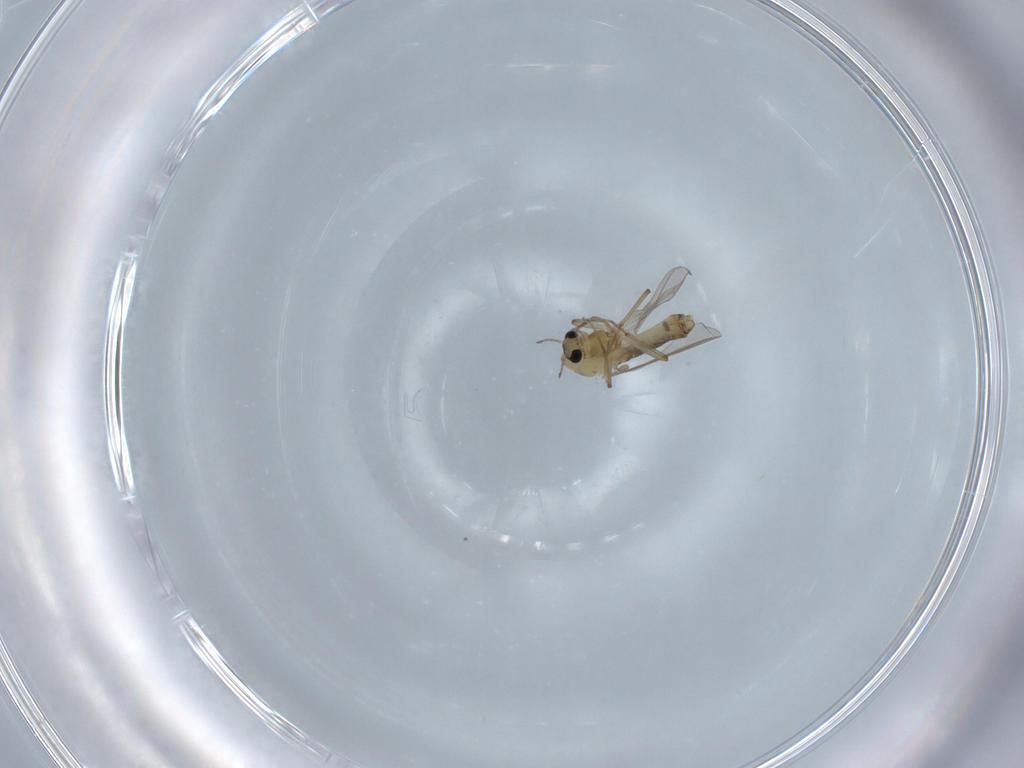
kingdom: Animalia
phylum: Arthropoda
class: Insecta
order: Diptera
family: Chironomidae
